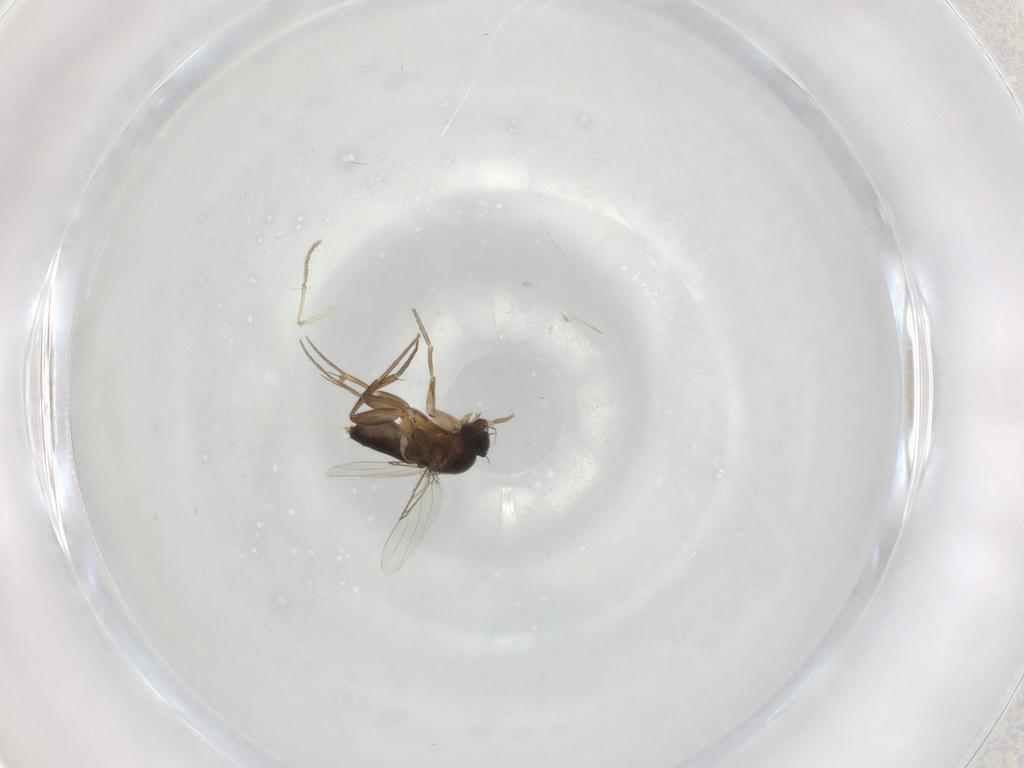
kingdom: Animalia
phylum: Arthropoda
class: Insecta
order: Diptera
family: Phoridae
